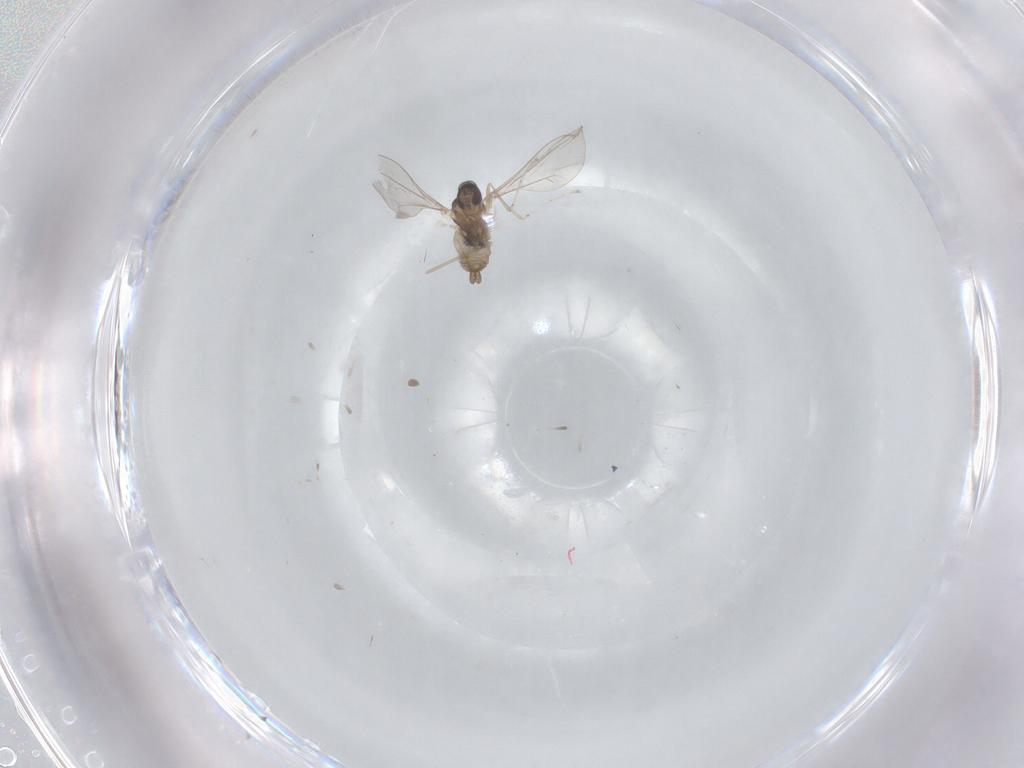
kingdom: Animalia
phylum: Arthropoda
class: Insecta
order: Diptera
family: Cecidomyiidae
